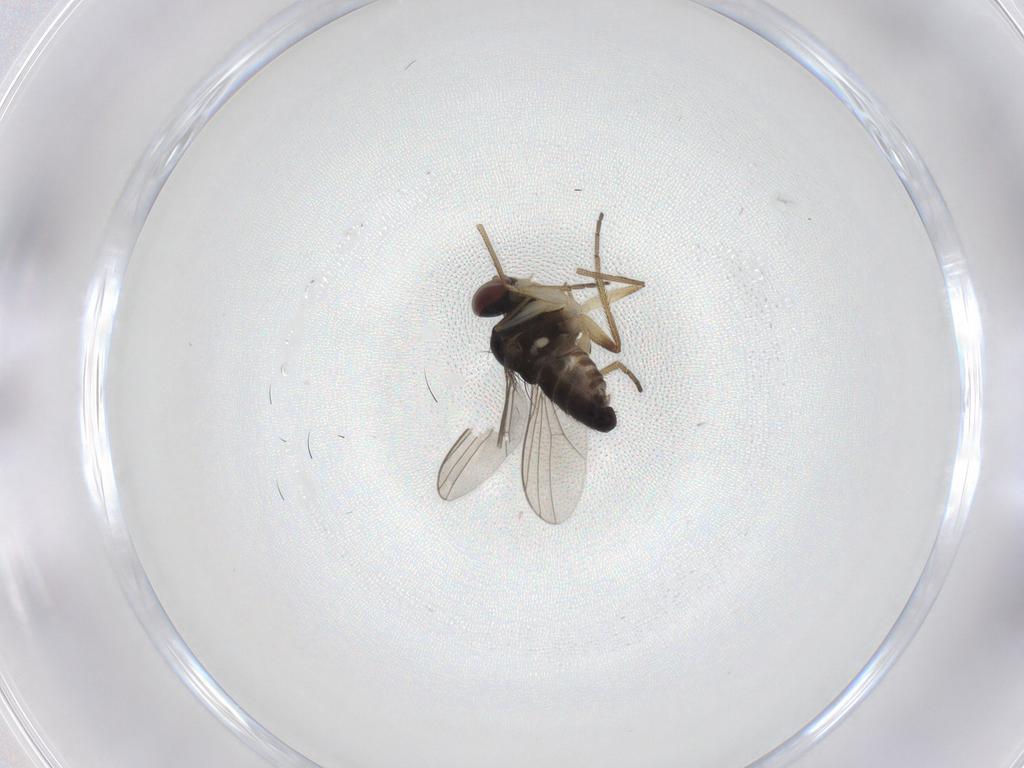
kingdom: Animalia
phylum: Arthropoda
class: Insecta
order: Diptera
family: Dolichopodidae
